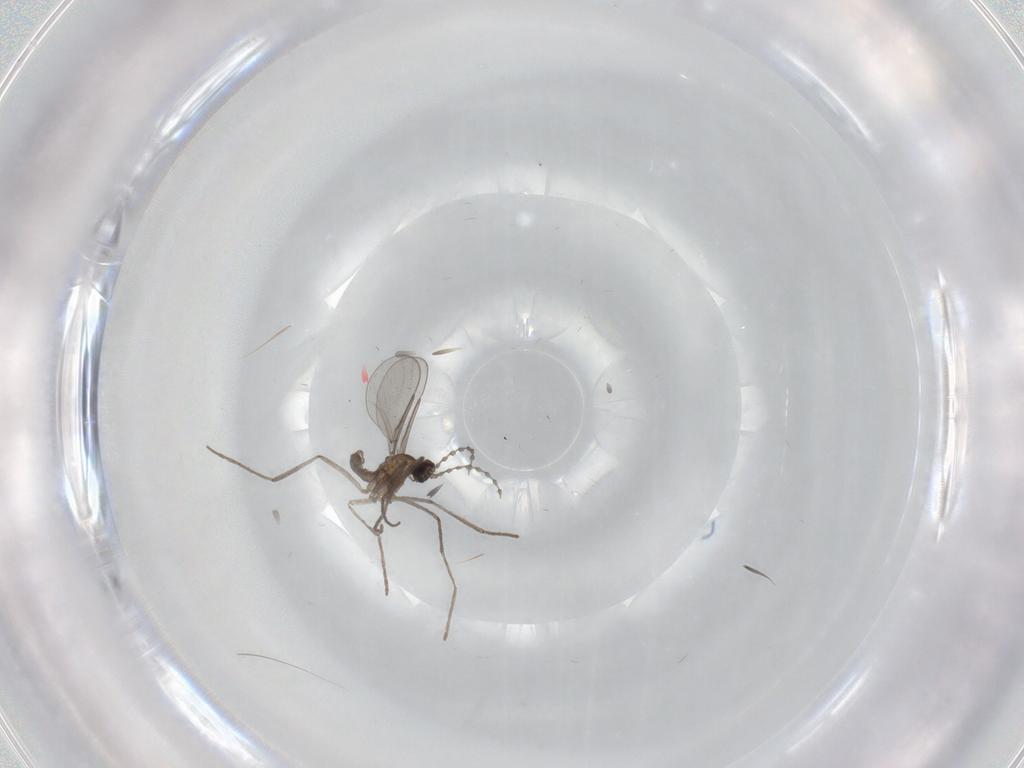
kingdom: Animalia
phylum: Arthropoda
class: Insecta
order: Diptera
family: Cecidomyiidae
